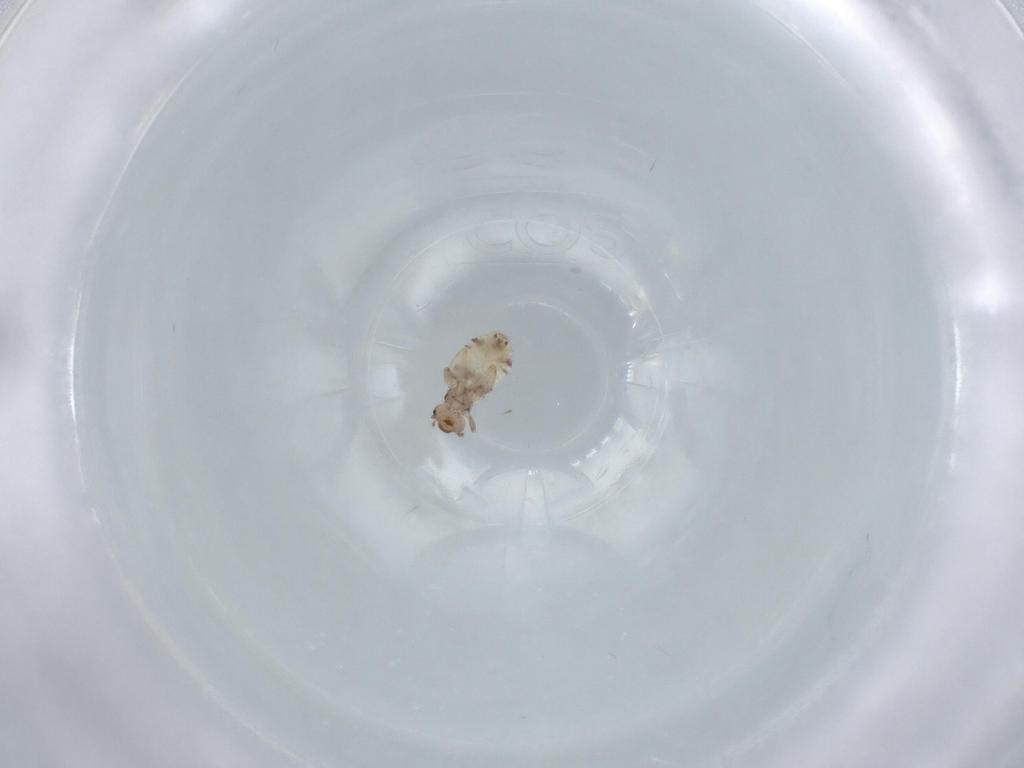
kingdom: Animalia
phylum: Arthropoda
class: Insecta
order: Psocodea
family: Liposcelididae
